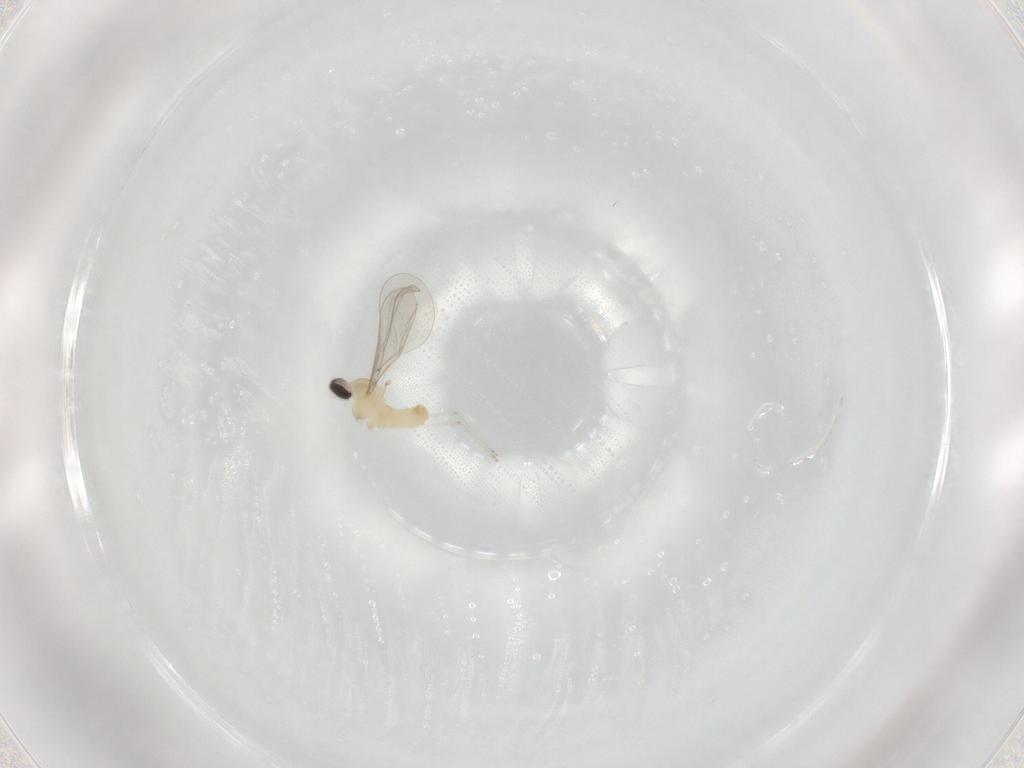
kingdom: Animalia
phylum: Arthropoda
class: Insecta
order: Diptera
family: Cecidomyiidae
